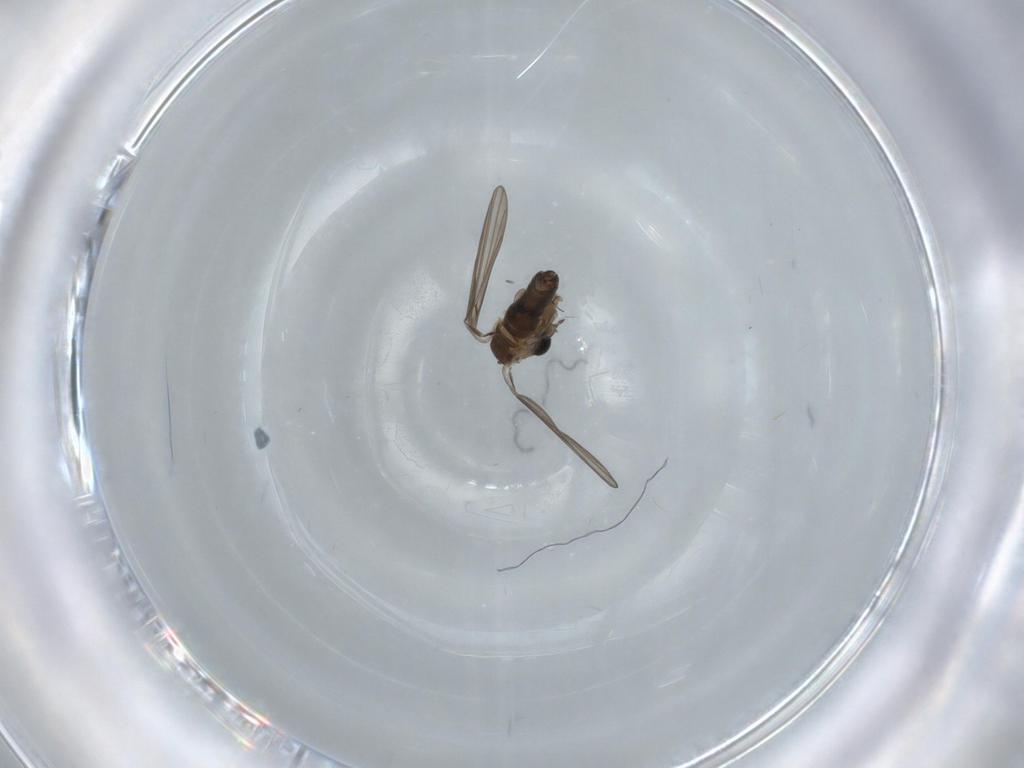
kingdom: Animalia
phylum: Arthropoda
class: Insecta
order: Diptera
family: Psychodidae
